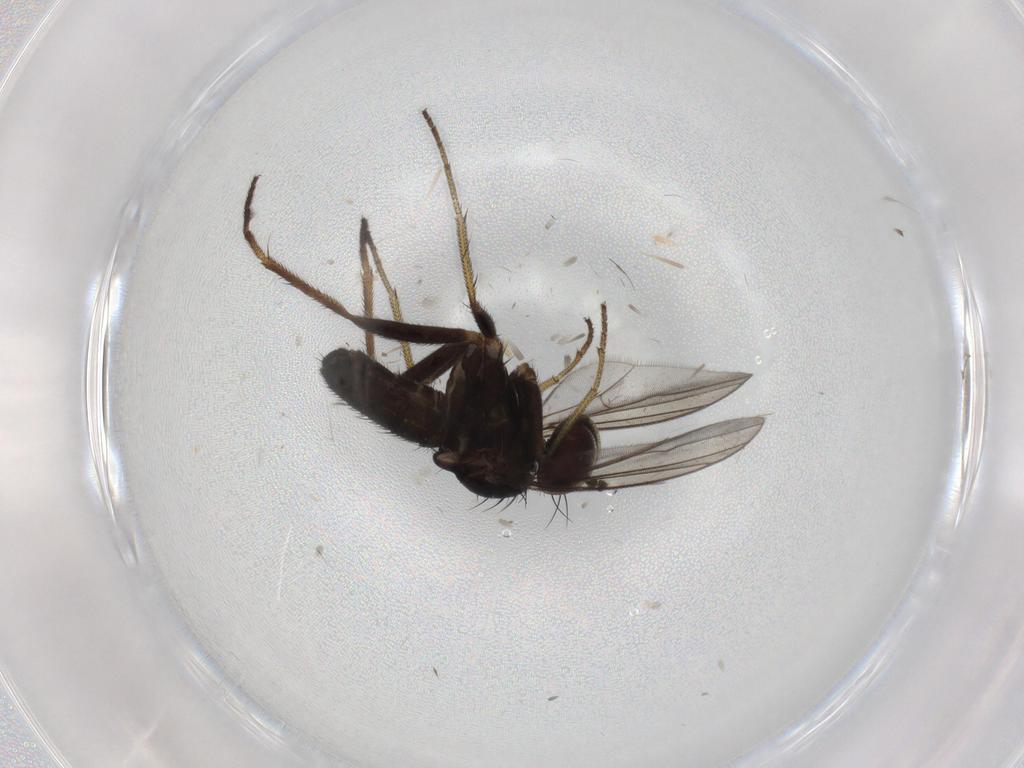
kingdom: Animalia
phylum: Arthropoda
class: Insecta
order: Diptera
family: Dolichopodidae
